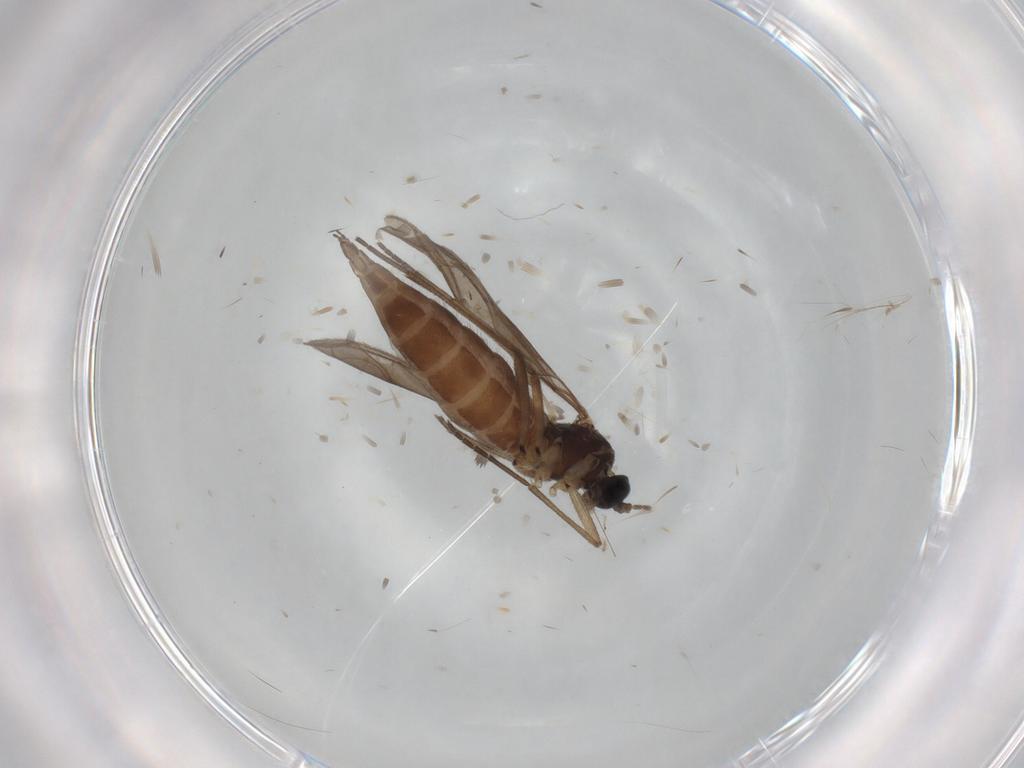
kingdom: Animalia
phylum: Arthropoda
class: Insecta
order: Diptera
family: Sciaridae
